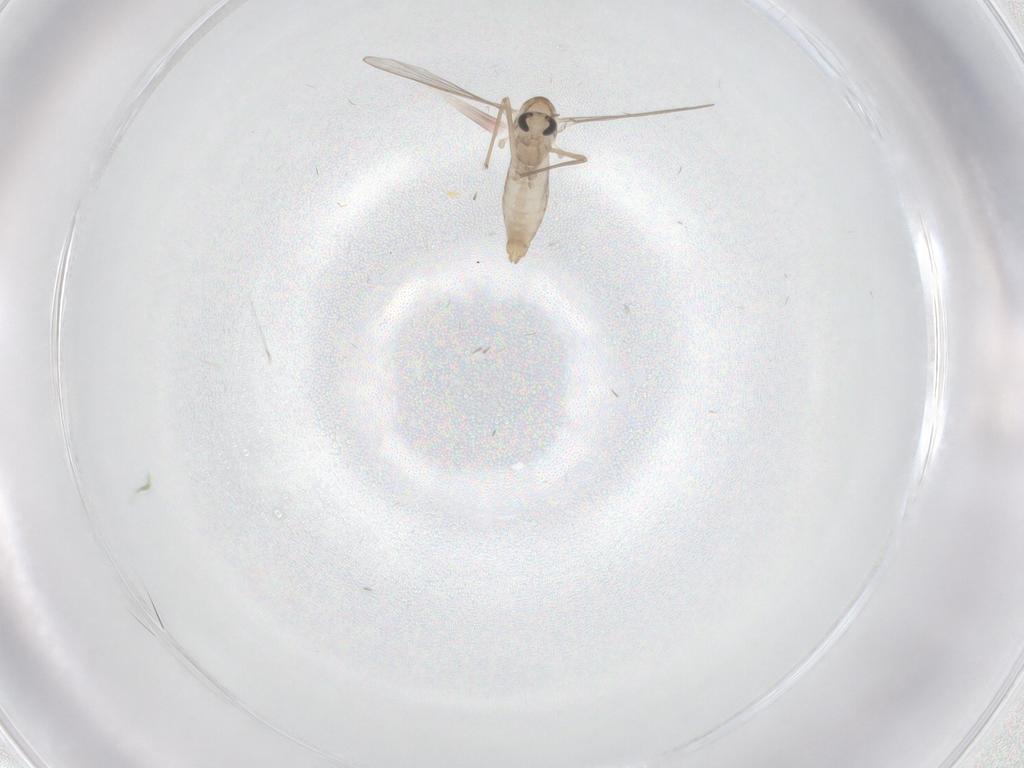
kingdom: Animalia
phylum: Arthropoda
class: Insecta
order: Diptera
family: Chironomidae
